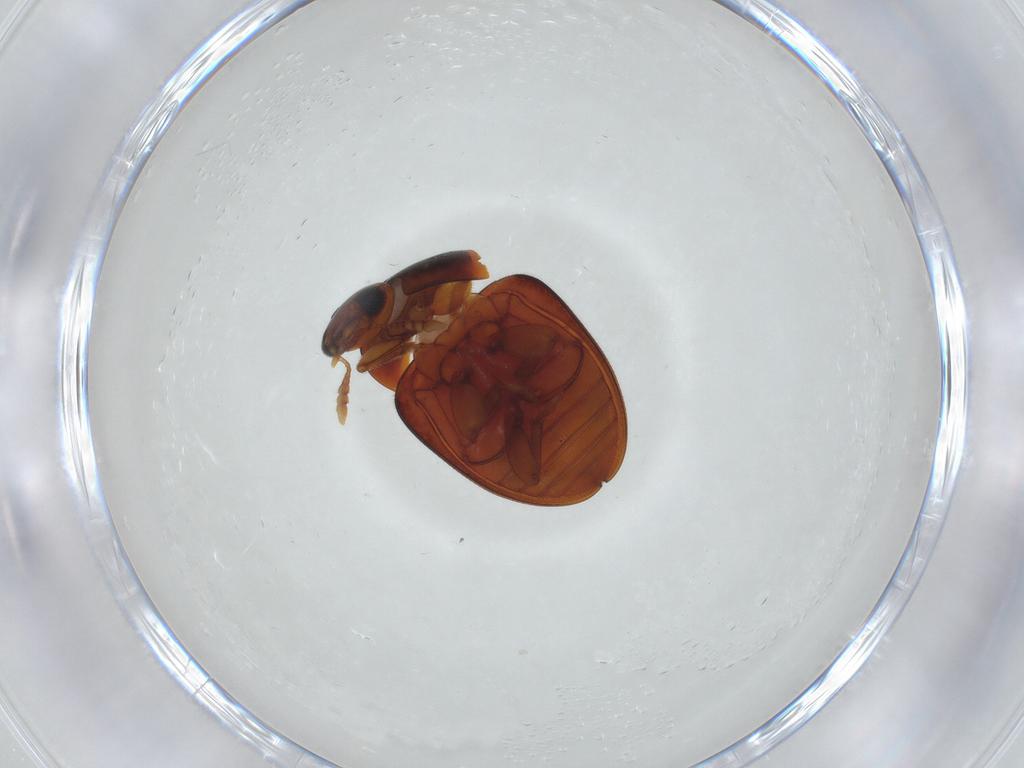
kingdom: Animalia
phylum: Arthropoda
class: Insecta
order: Coleoptera
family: Phalacridae
